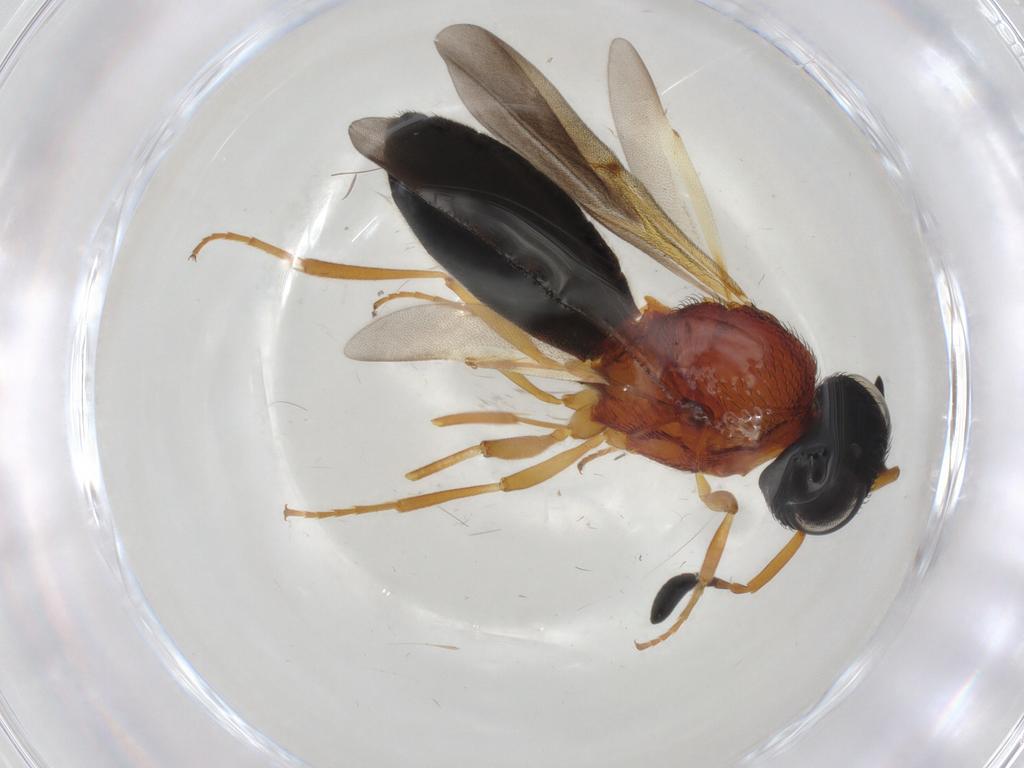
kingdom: Animalia
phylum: Arthropoda
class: Insecta
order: Hymenoptera
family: Scelionidae
